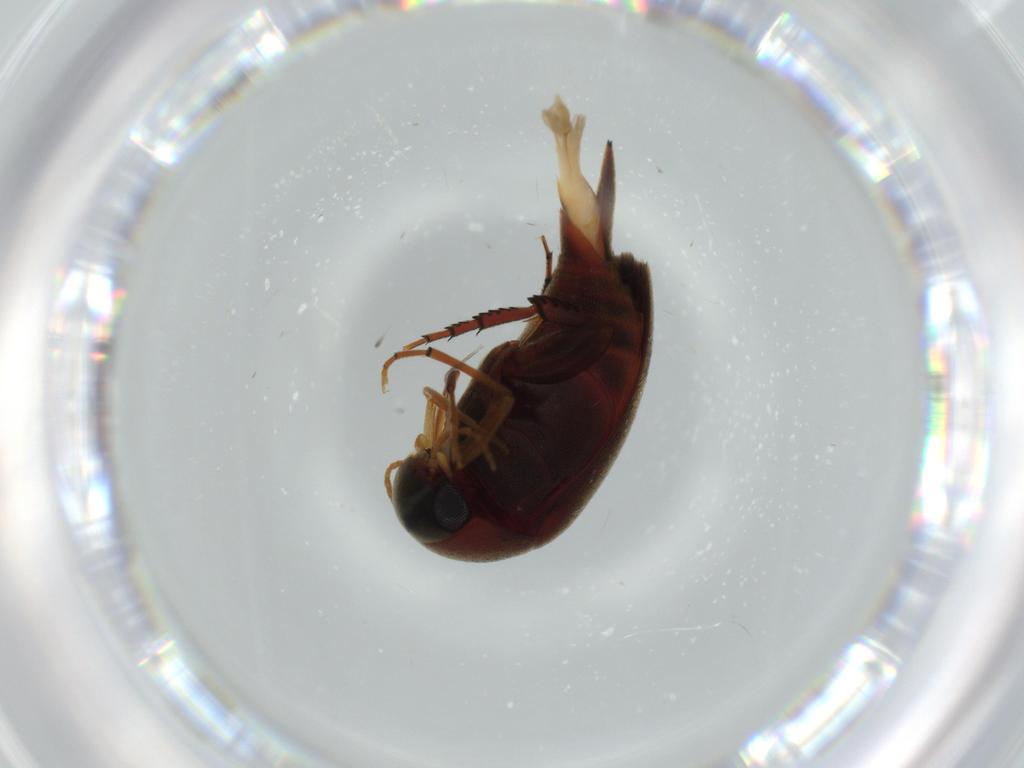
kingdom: Animalia
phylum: Arthropoda
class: Insecta
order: Coleoptera
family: Mordellidae
